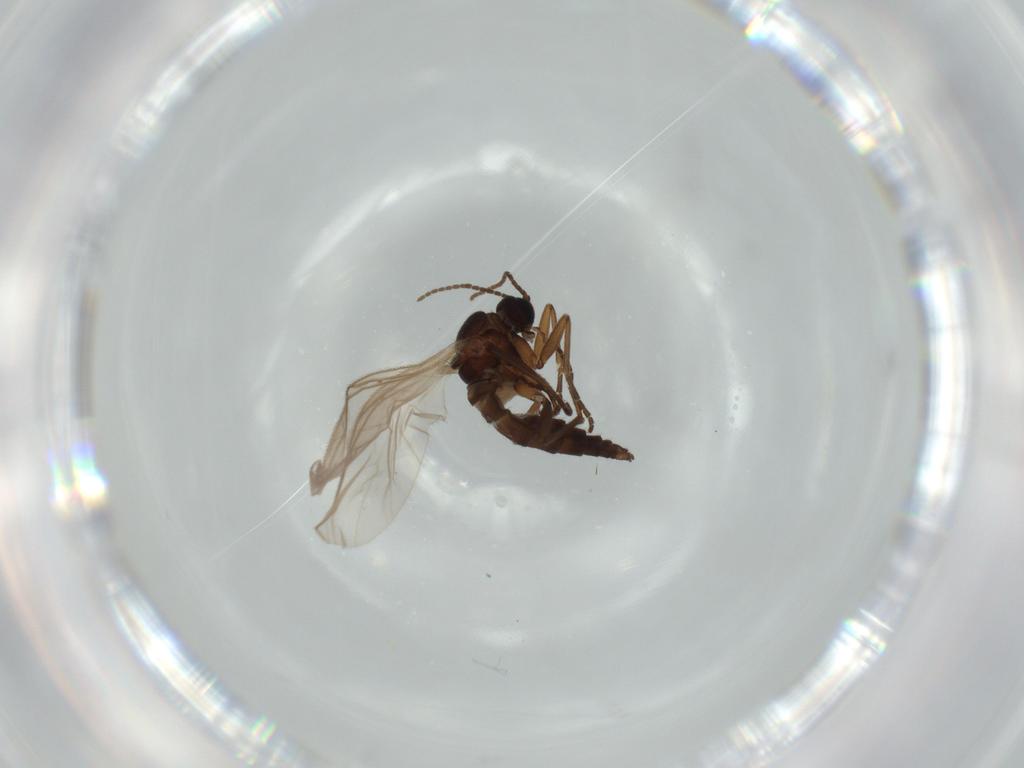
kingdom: Animalia
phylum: Arthropoda
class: Insecta
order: Diptera
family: Sciaridae
